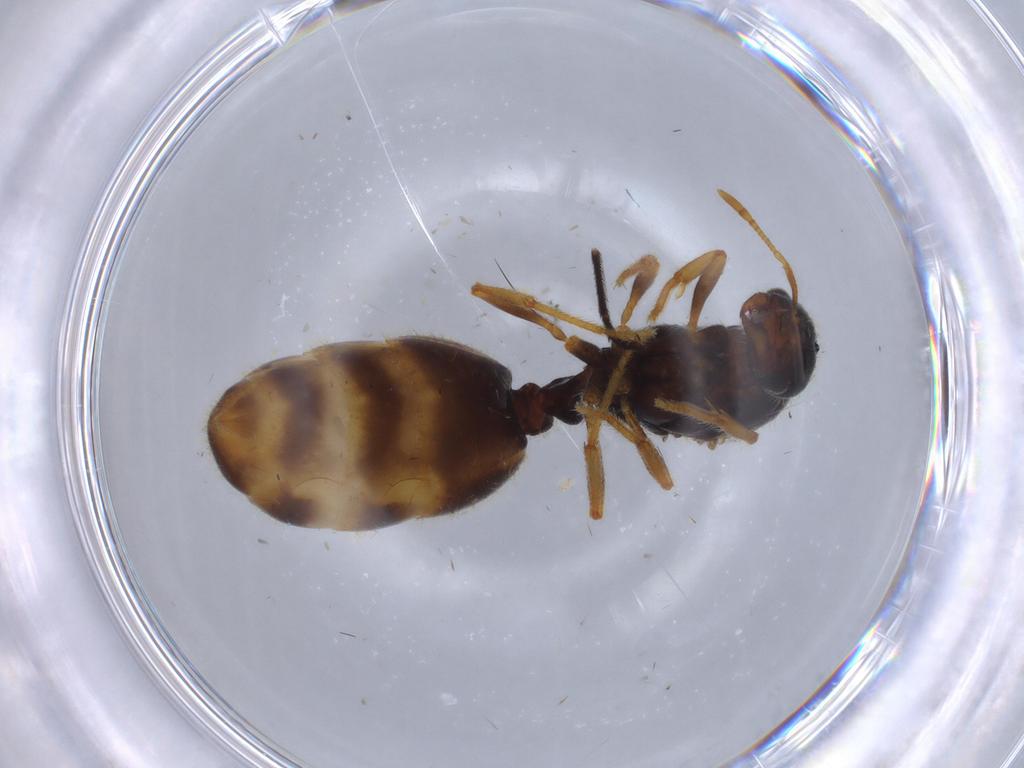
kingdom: Animalia
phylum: Arthropoda
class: Insecta
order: Hymenoptera
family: Formicidae
